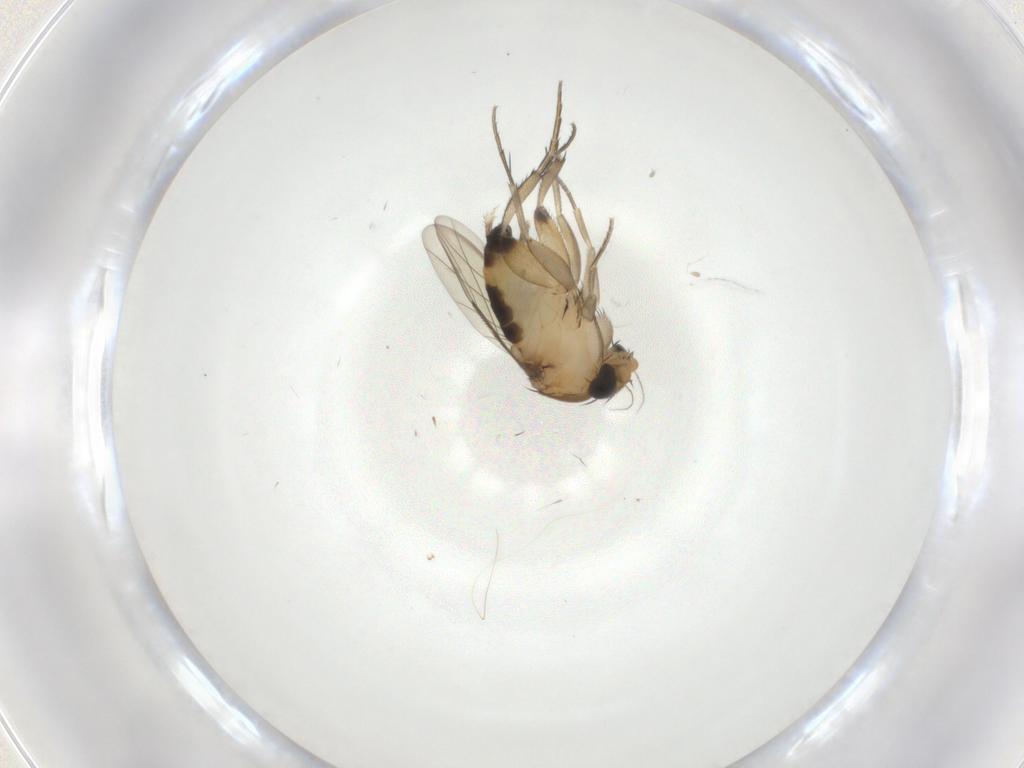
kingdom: Animalia
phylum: Arthropoda
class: Insecta
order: Diptera
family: Phoridae
